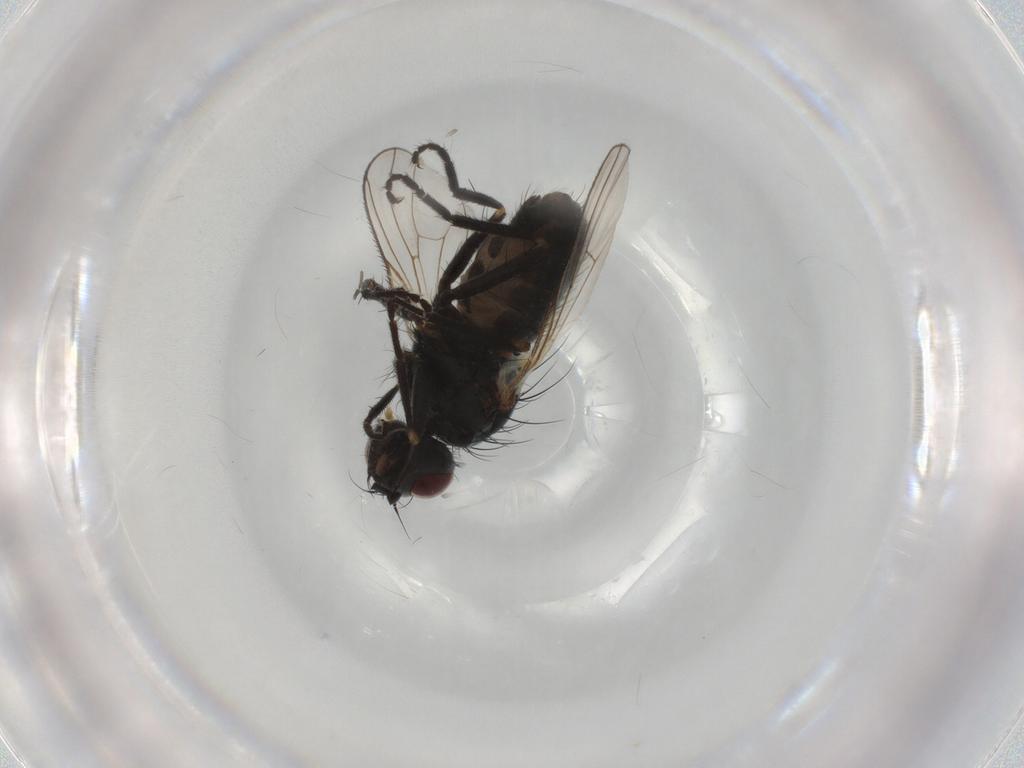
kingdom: Animalia
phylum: Arthropoda
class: Insecta
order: Diptera
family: Muscidae
